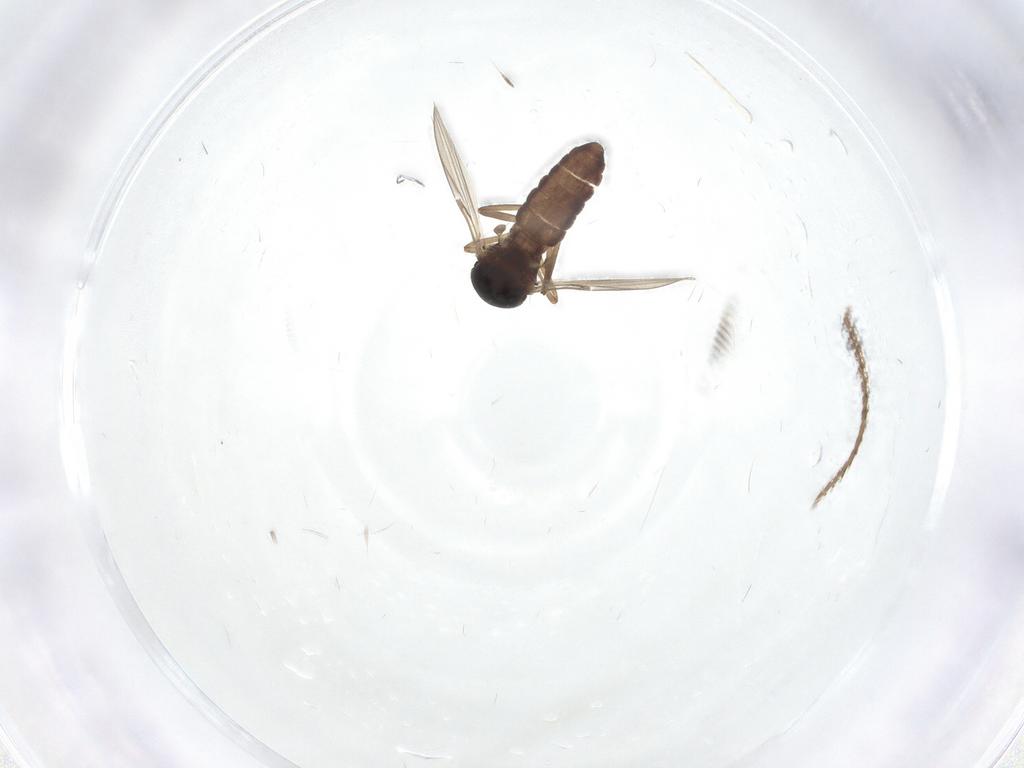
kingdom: Animalia
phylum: Arthropoda
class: Insecta
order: Diptera
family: Ceratopogonidae
